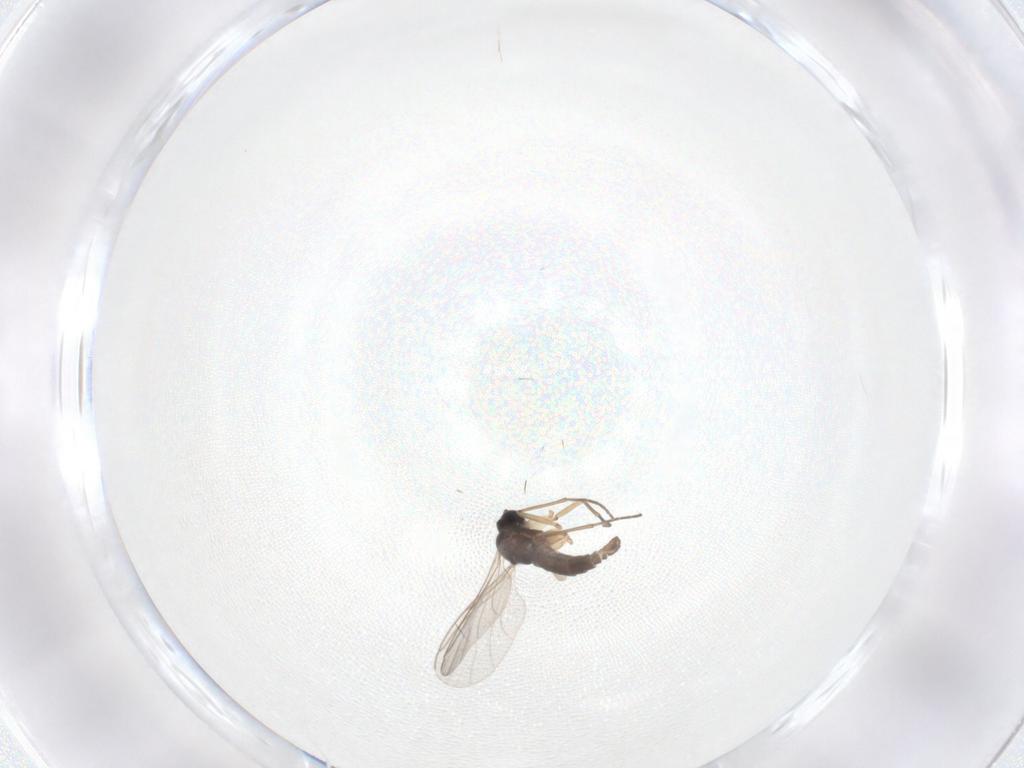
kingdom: Animalia
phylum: Arthropoda
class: Insecta
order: Diptera
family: Sciaridae
